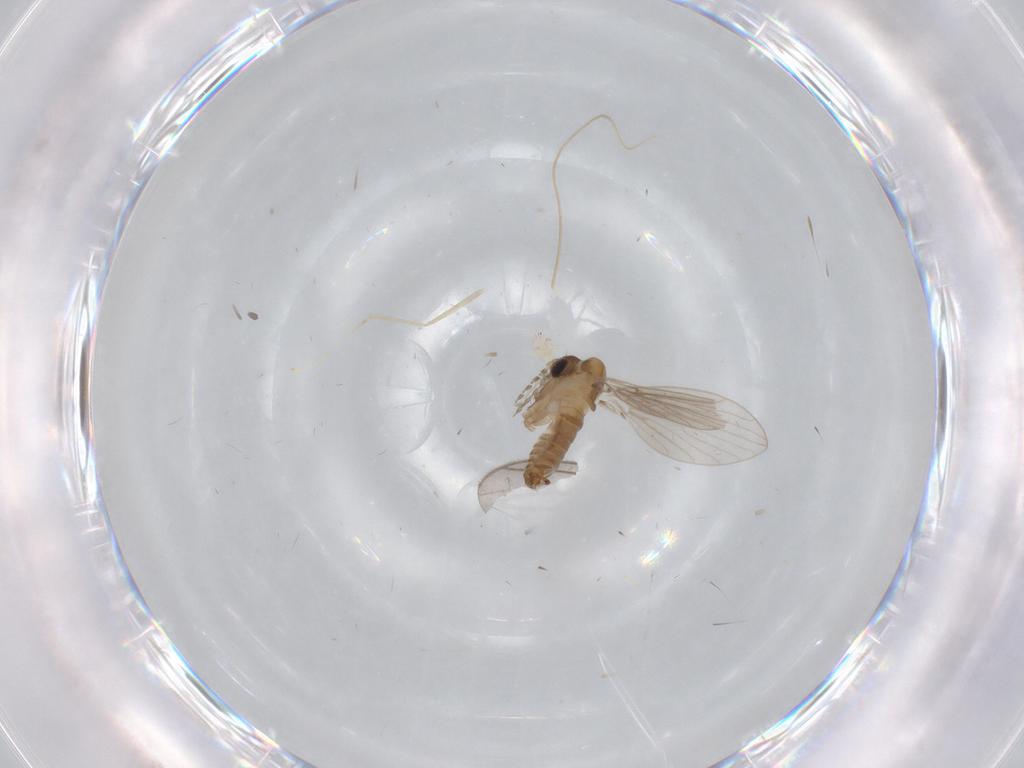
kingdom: Animalia
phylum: Arthropoda
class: Insecta
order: Diptera
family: Cecidomyiidae
